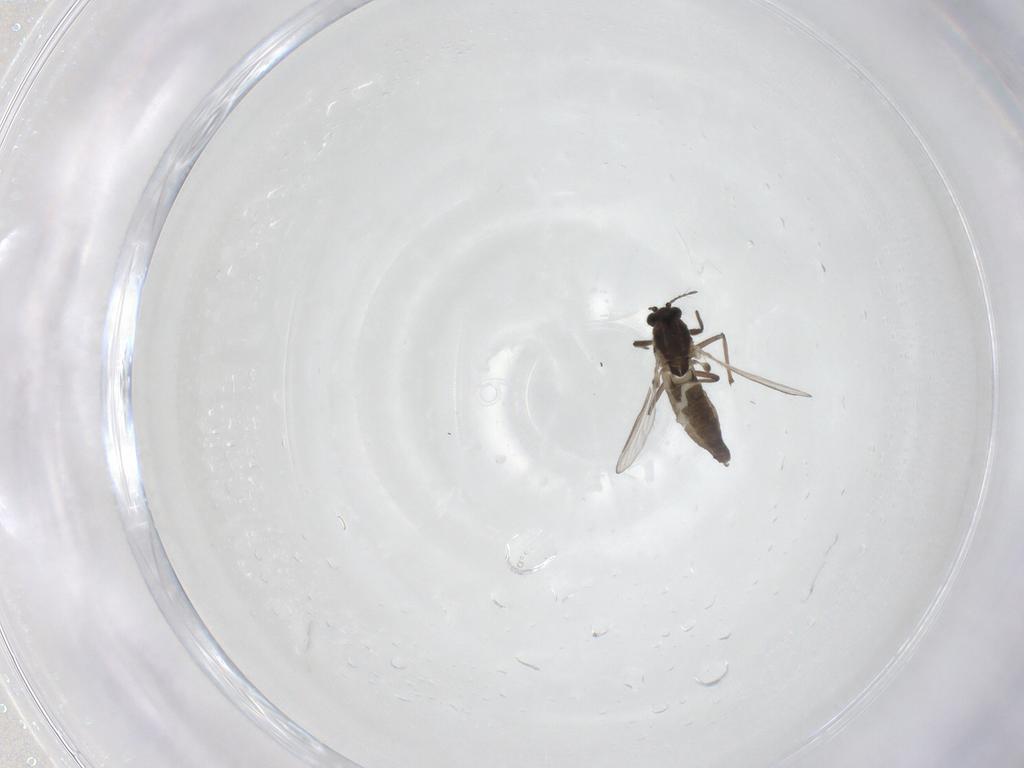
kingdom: Animalia
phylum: Arthropoda
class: Insecta
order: Diptera
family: Chironomidae
